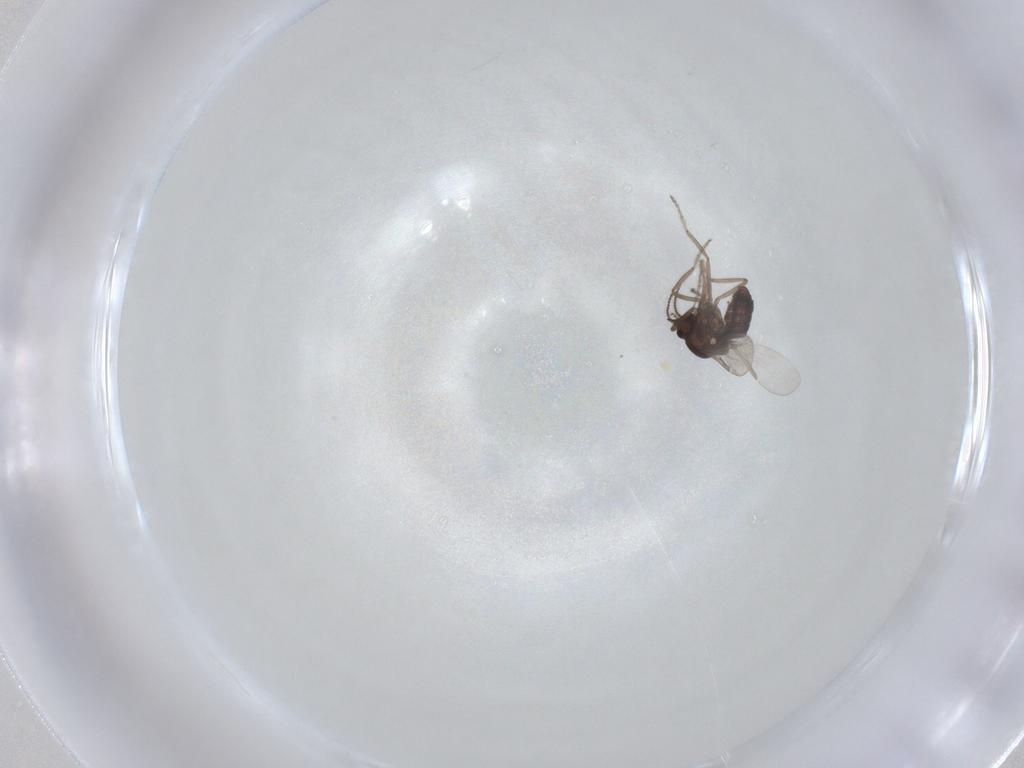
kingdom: Animalia
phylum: Arthropoda
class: Insecta
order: Diptera
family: Ceratopogonidae
